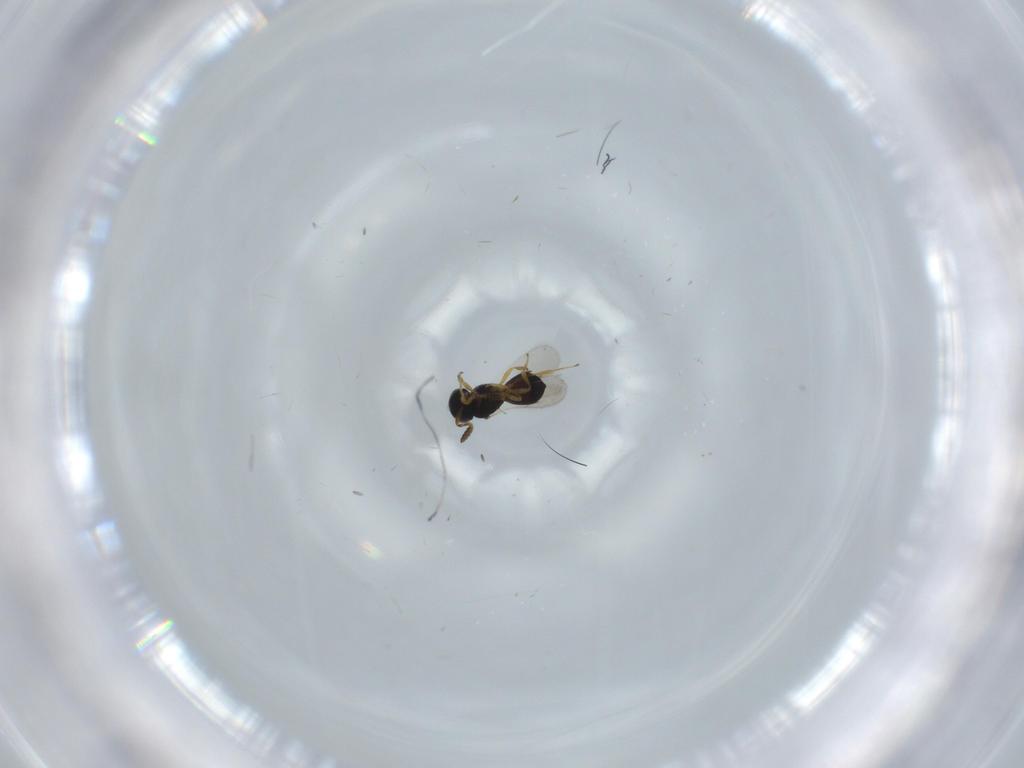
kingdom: Animalia
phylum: Arthropoda
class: Insecta
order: Hymenoptera
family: Scelionidae
